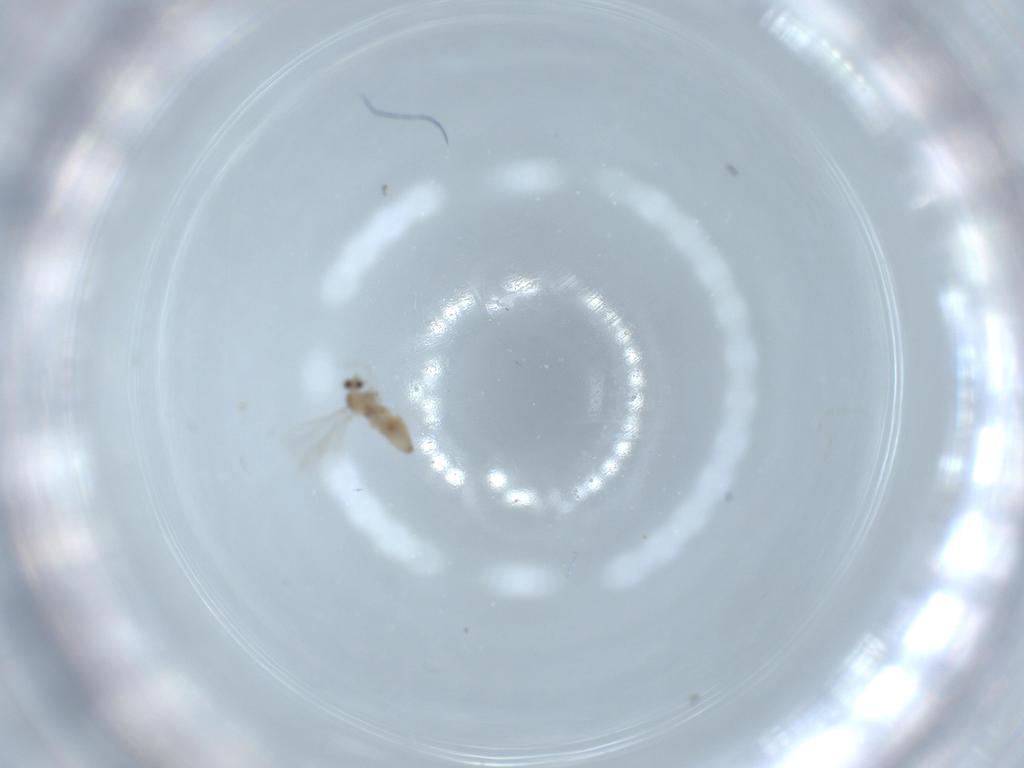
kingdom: Animalia
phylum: Arthropoda
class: Insecta
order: Diptera
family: Cecidomyiidae
